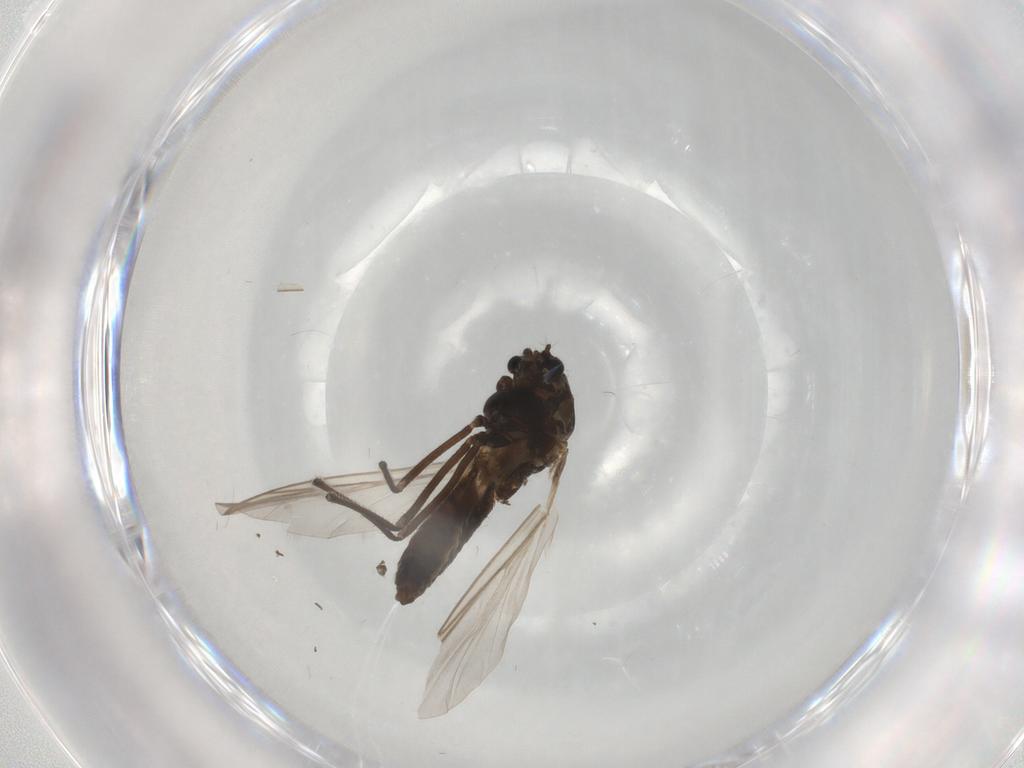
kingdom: Animalia
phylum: Arthropoda
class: Insecta
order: Diptera
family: Chironomidae
